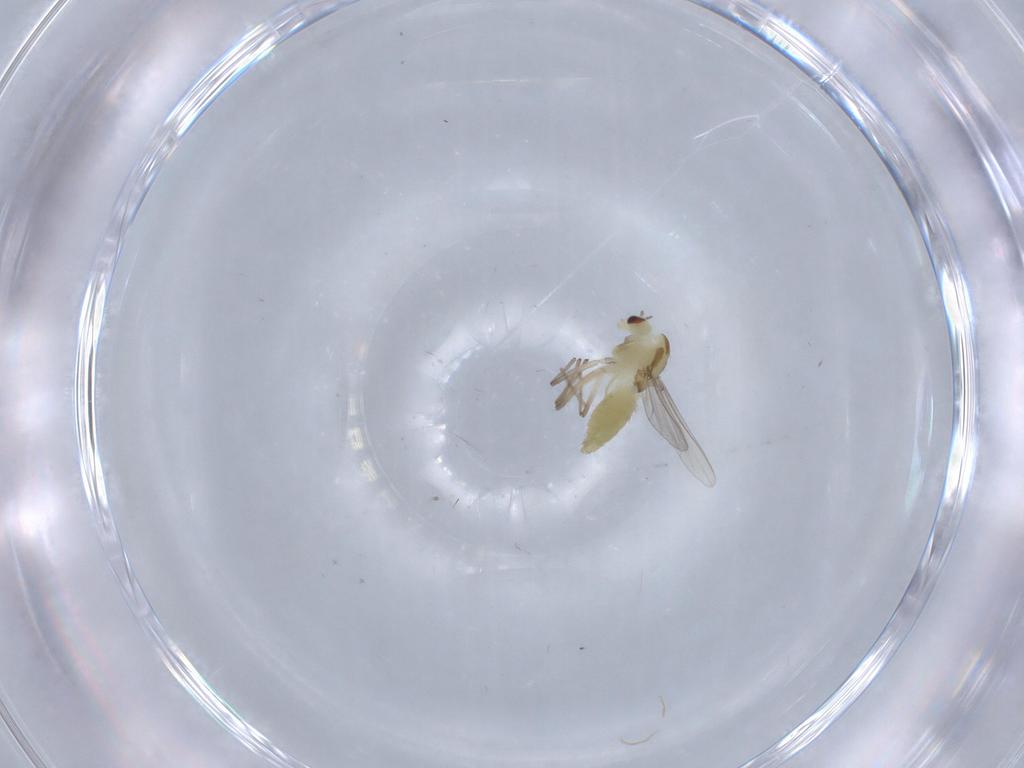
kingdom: Animalia
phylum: Arthropoda
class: Insecta
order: Diptera
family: Chironomidae
